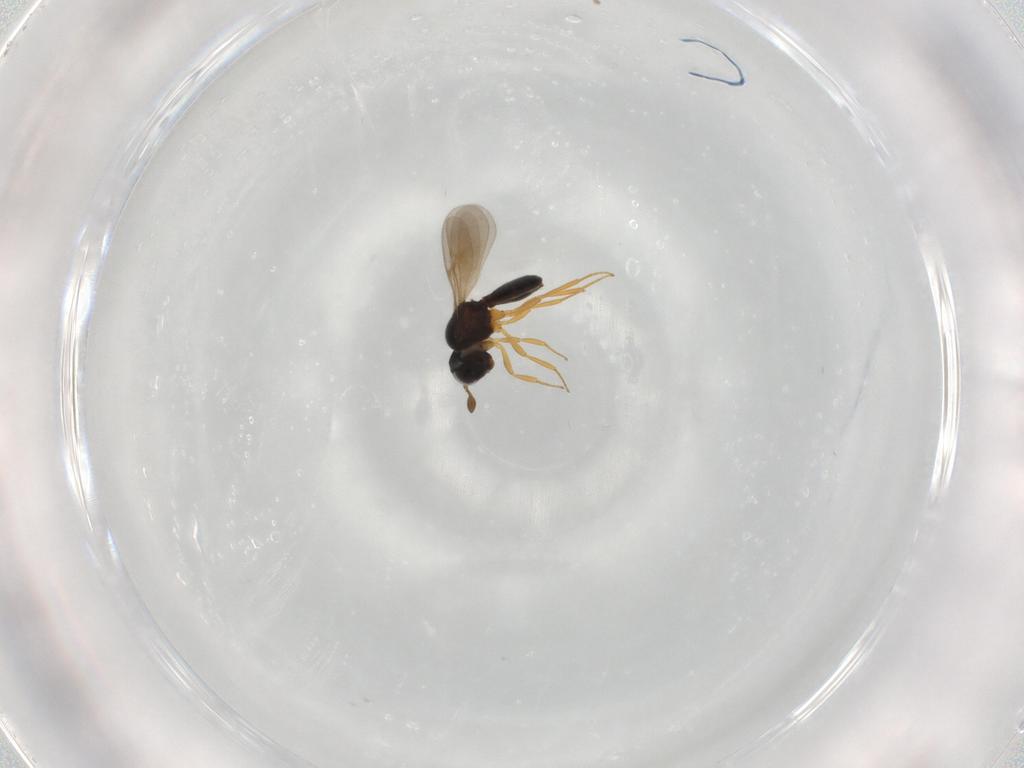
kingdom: Animalia
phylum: Arthropoda
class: Insecta
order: Hymenoptera
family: Scelionidae
